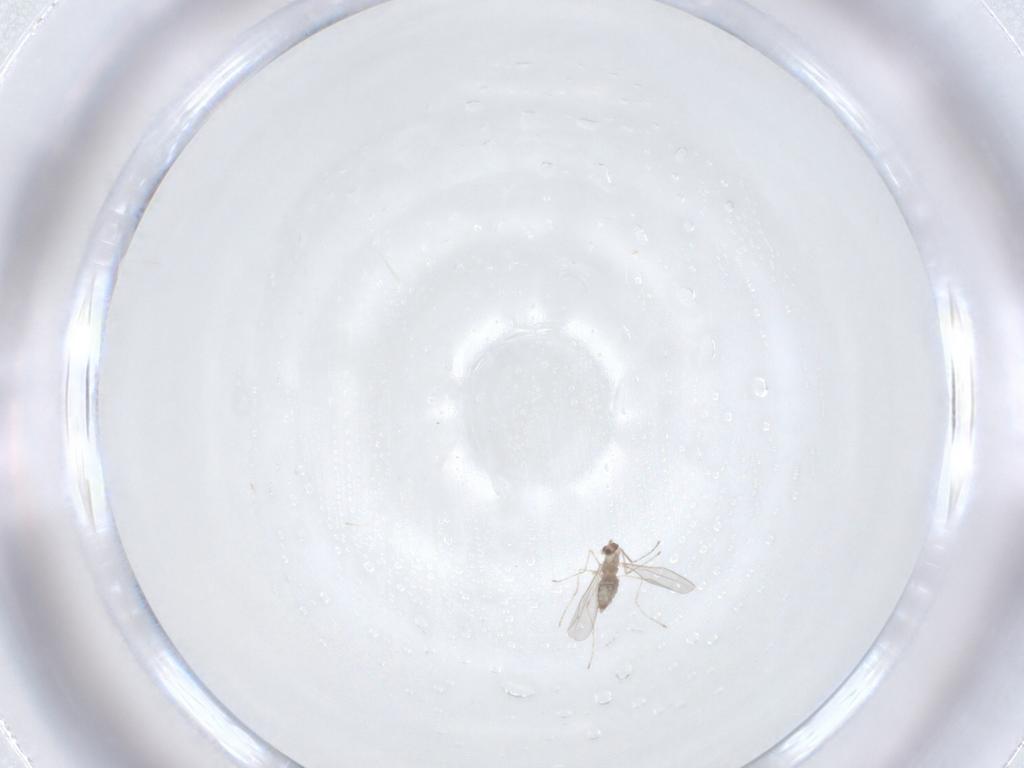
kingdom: Animalia
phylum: Arthropoda
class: Insecta
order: Diptera
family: Cecidomyiidae
